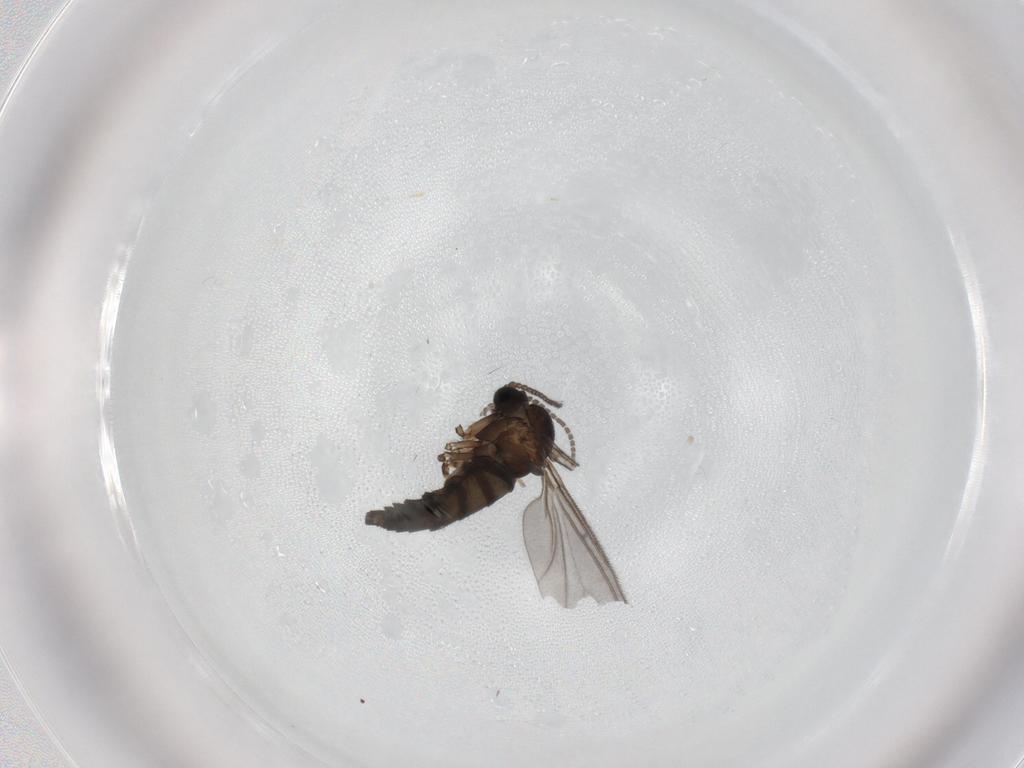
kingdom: Animalia
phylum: Arthropoda
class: Insecta
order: Diptera
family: Sciaridae
